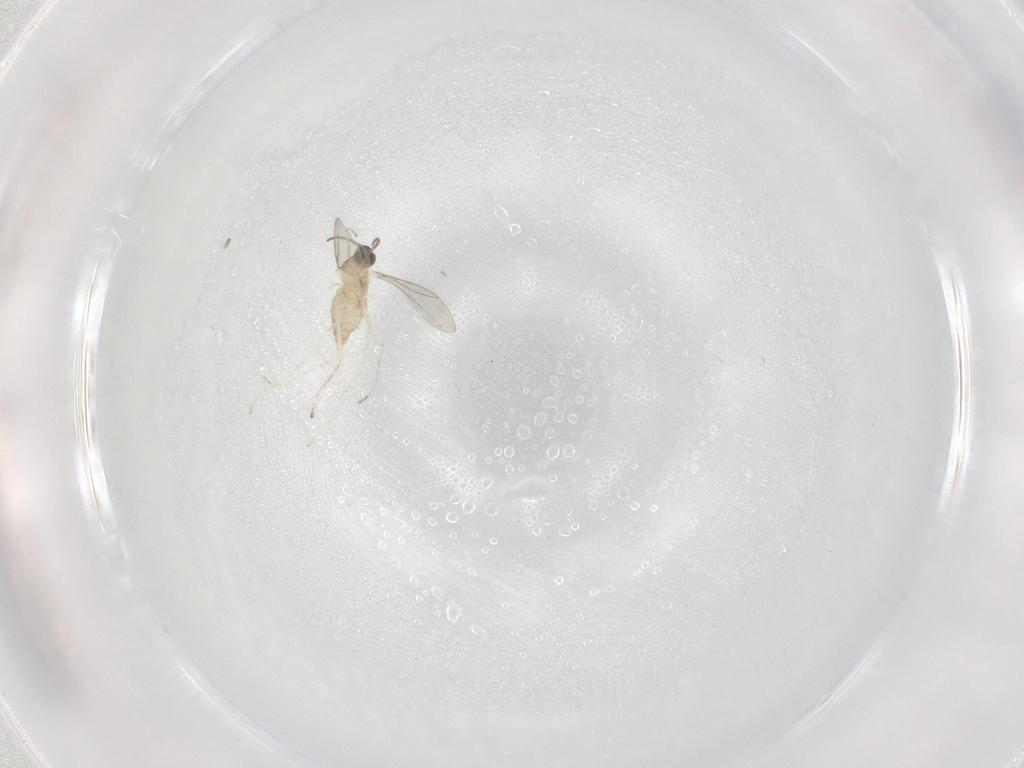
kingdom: Animalia
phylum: Arthropoda
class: Insecta
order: Diptera
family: Cecidomyiidae
